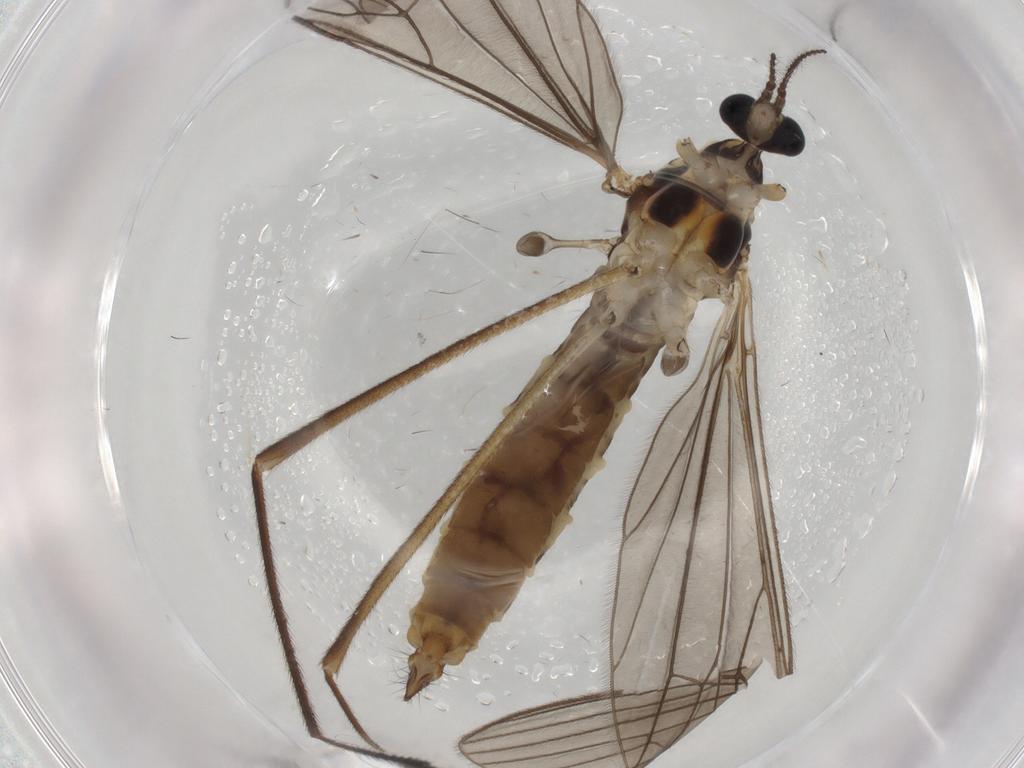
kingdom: Animalia
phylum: Arthropoda
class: Insecta
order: Diptera
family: Limoniidae
